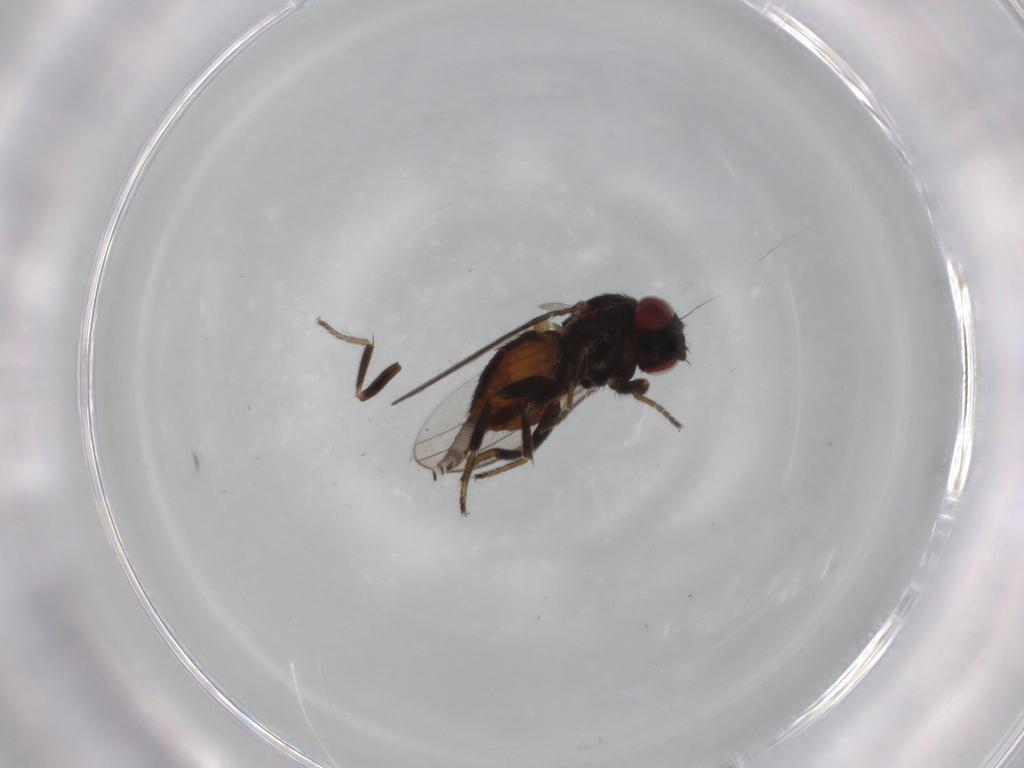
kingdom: Animalia
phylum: Arthropoda
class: Insecta
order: Diptera
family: Milichiidae
